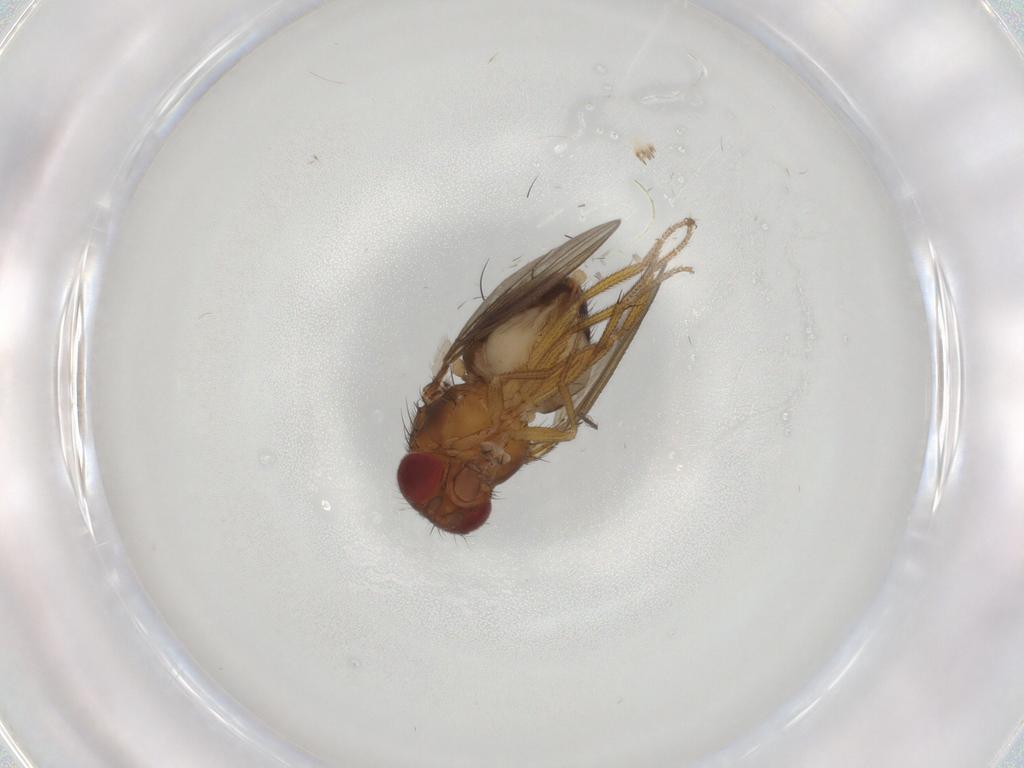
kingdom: Animalia
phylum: Arthropoda
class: Insecta
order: Diptera
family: Drosophilidae
